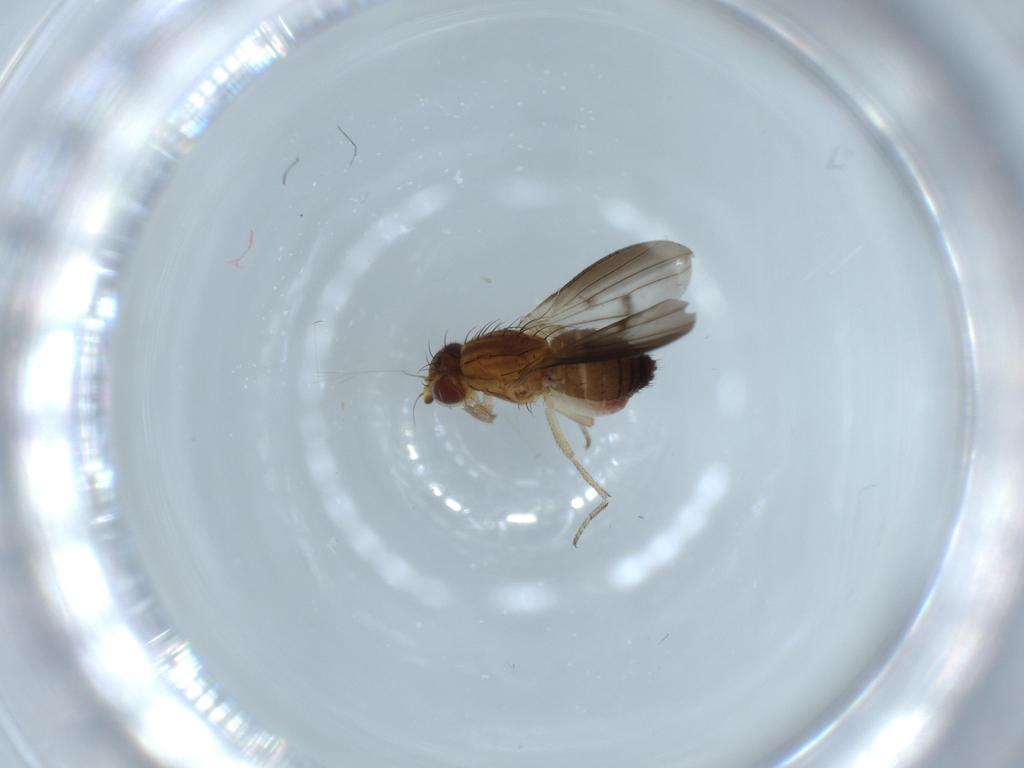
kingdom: Animalia
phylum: Arthropoda
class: Insecta
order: Diptera
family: Heleomyzidae
